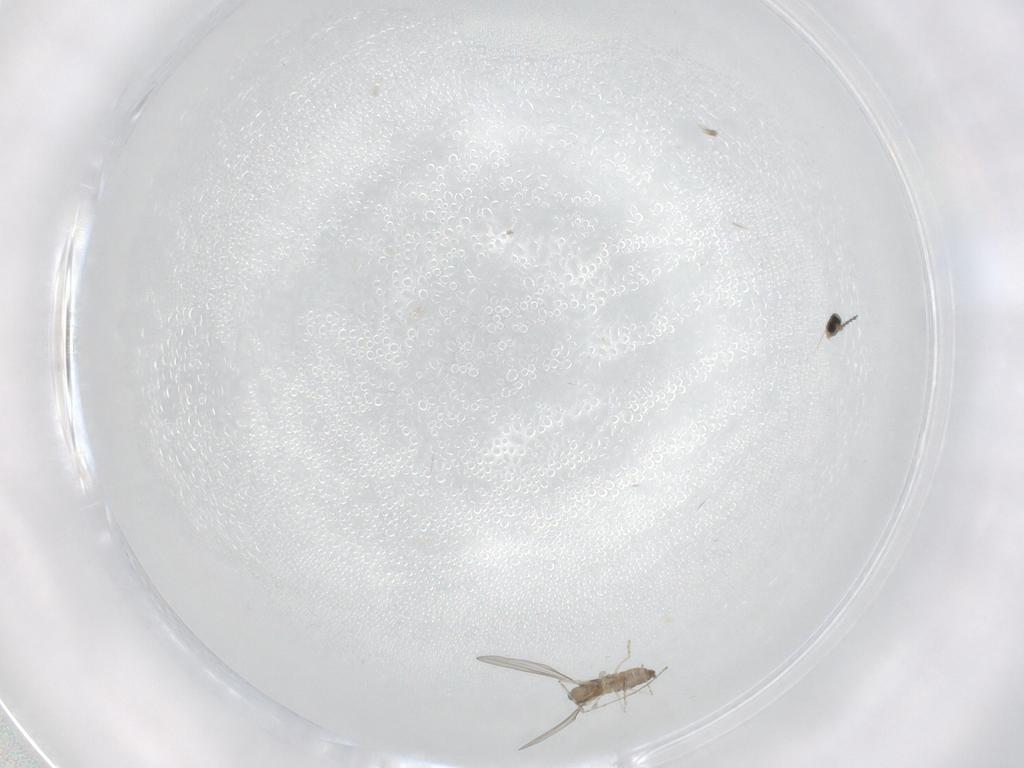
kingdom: Animalia
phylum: Arthropoda
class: Insecta
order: Diptera
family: Cecidomyiidae
